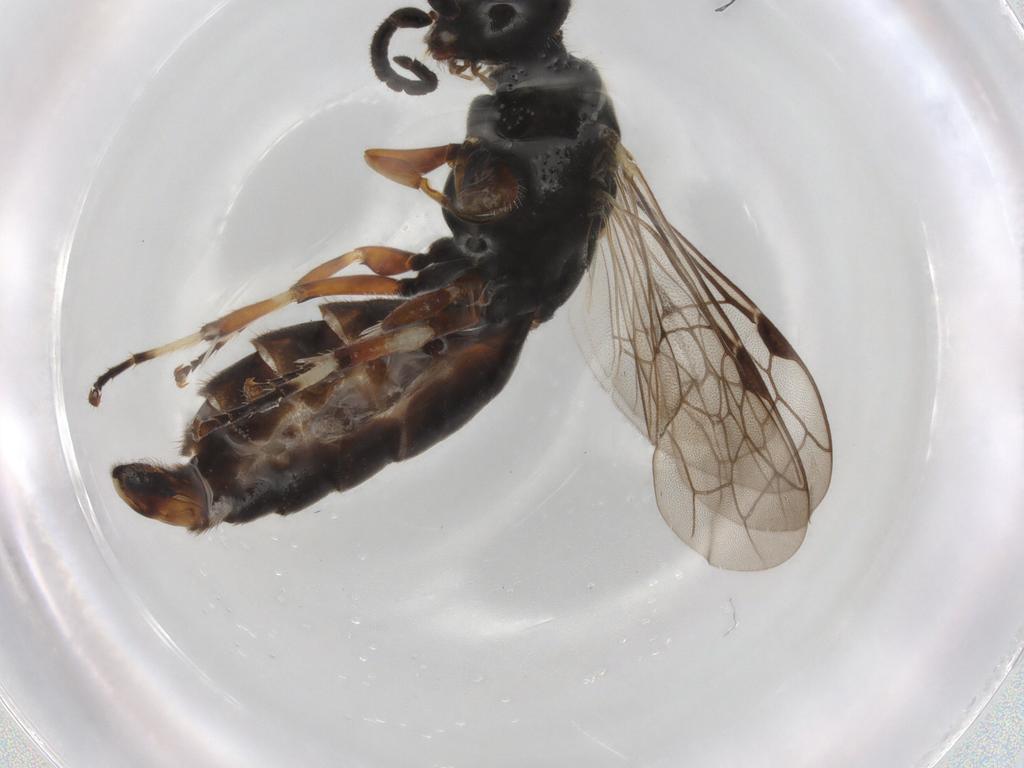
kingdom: Animalia
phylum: Arthropoda
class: Insecta
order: Hymenoptera
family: Thynnidae
